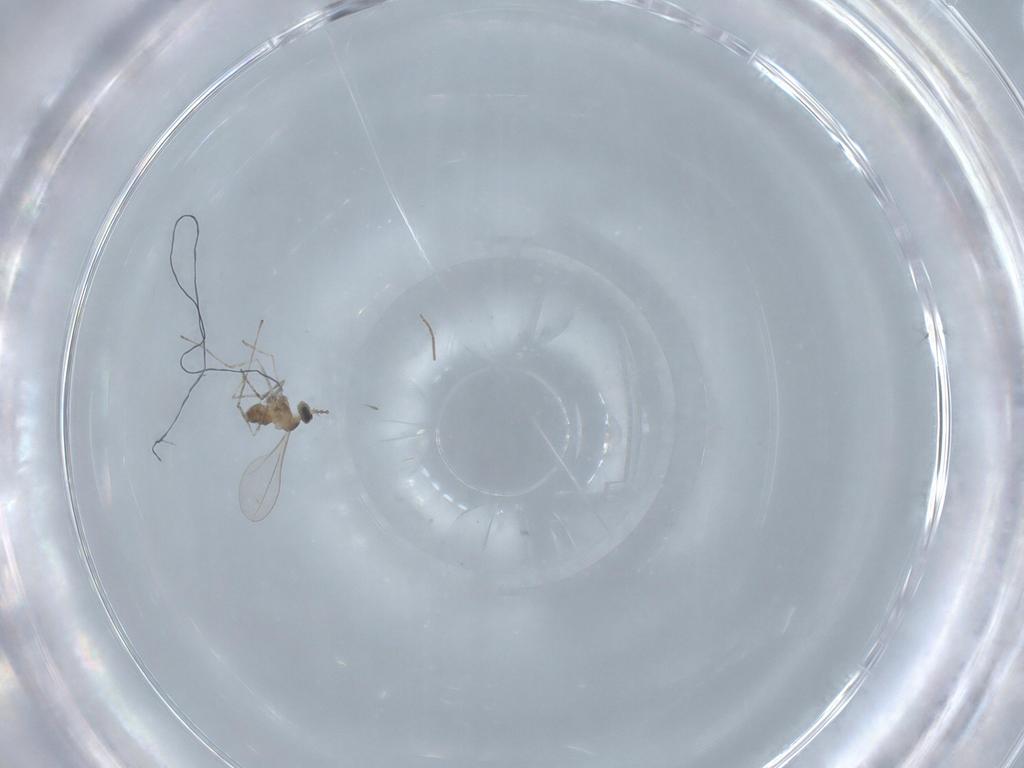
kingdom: Animalia
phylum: Arthropoda
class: Insecta
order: Diptera
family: Cecidomyiidae
